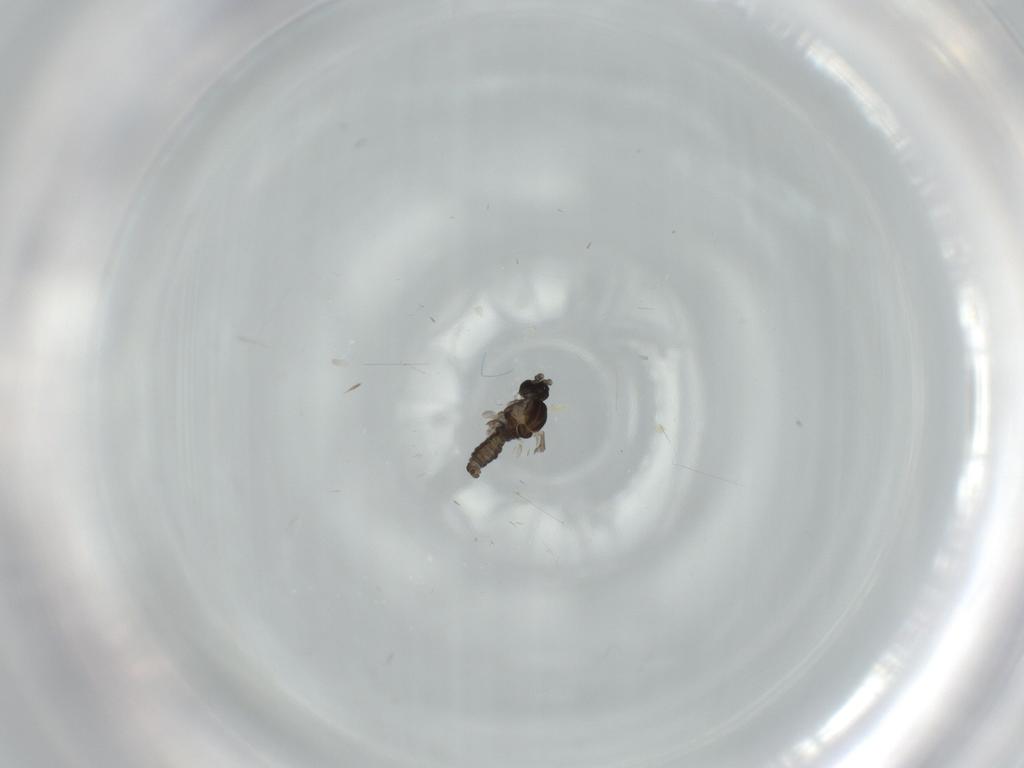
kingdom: Animalia
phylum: Arthropoda
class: Insecta
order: Diptera
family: Cecidomyiidae
